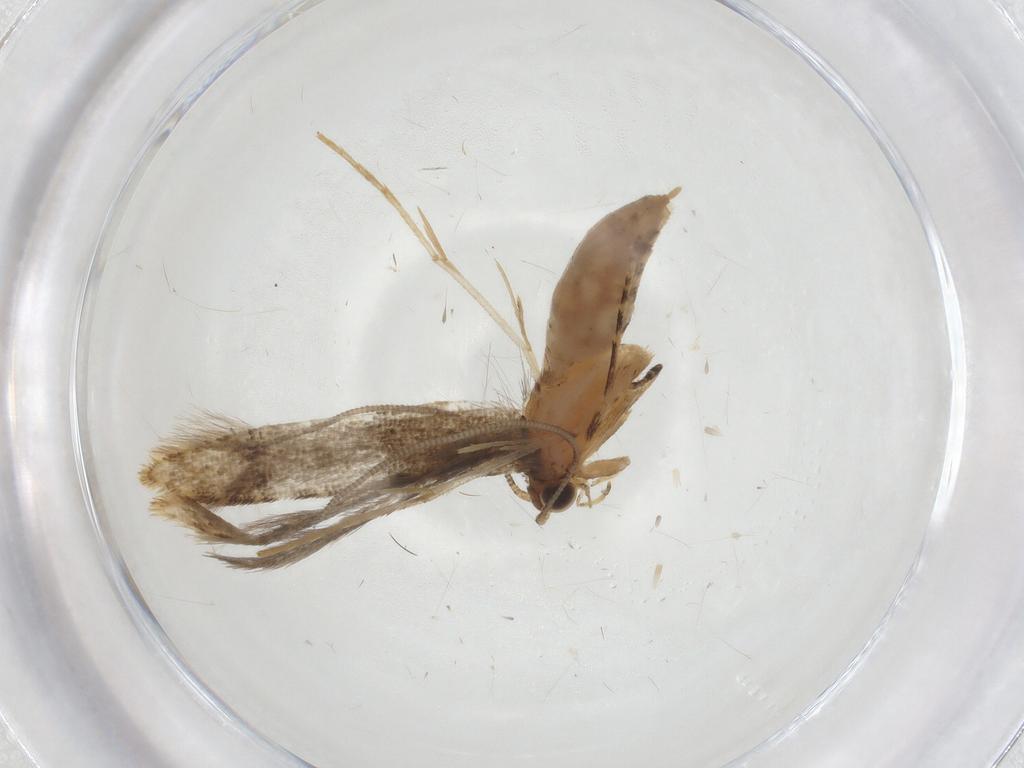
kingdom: Animalia
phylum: Arthropoda
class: Insecta
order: Lepidoptera
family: Tineidae
